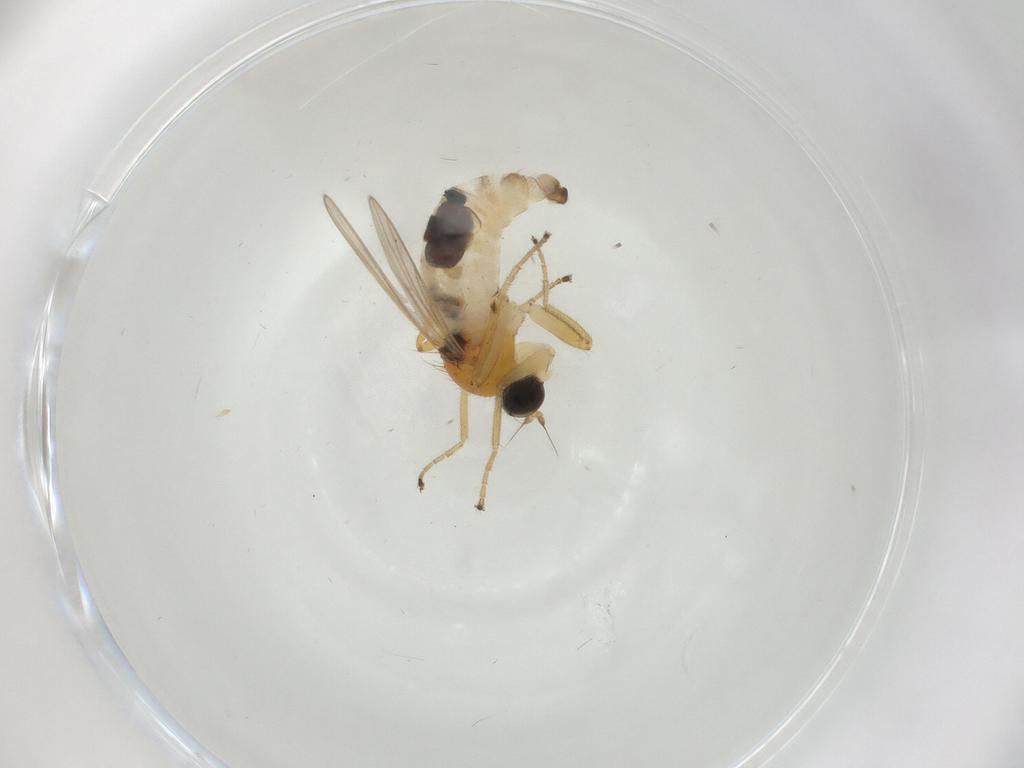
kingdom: Animalia
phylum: Arthropoda
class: Insecta
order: Diptera
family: Hybotidae
